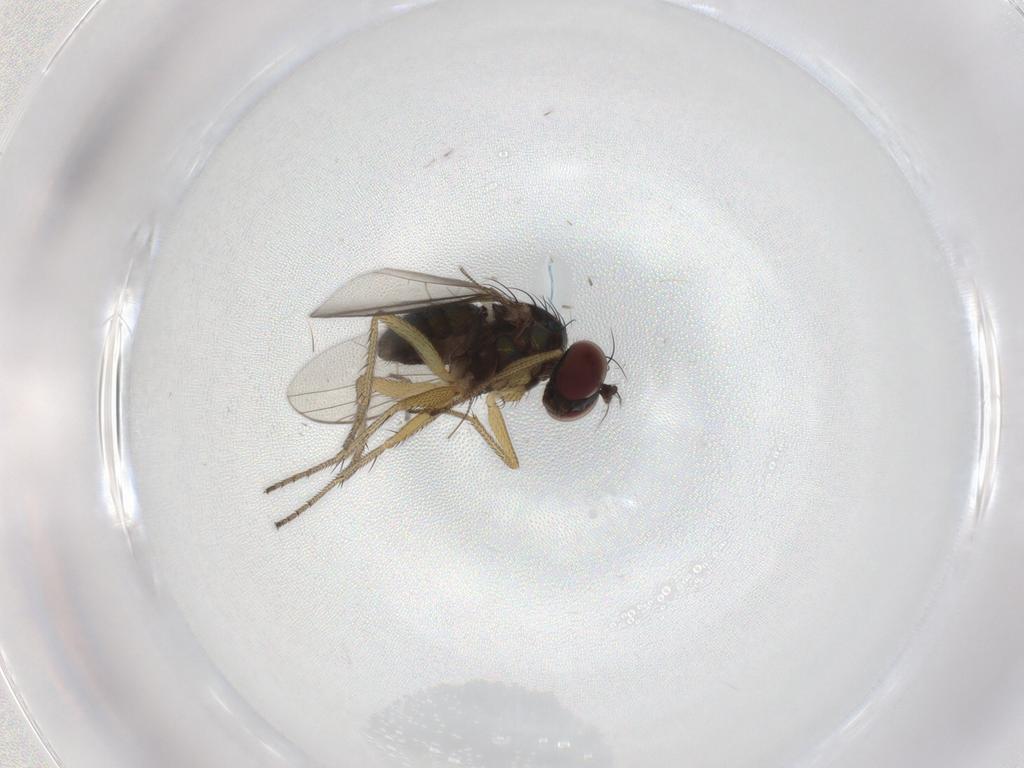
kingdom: Animalia
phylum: Arthropoda
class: Insecta
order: Diptera
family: Chironomidae
